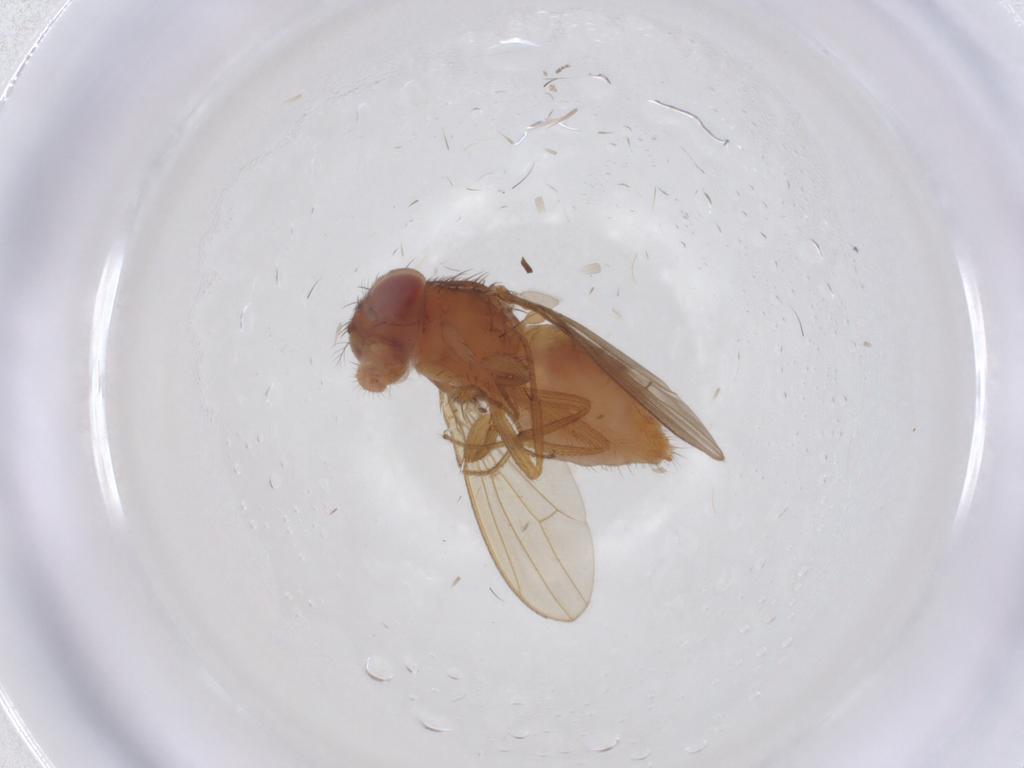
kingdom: Animalia
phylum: Arthropoda
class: Insecta
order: Diptera
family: Drosophilidae
